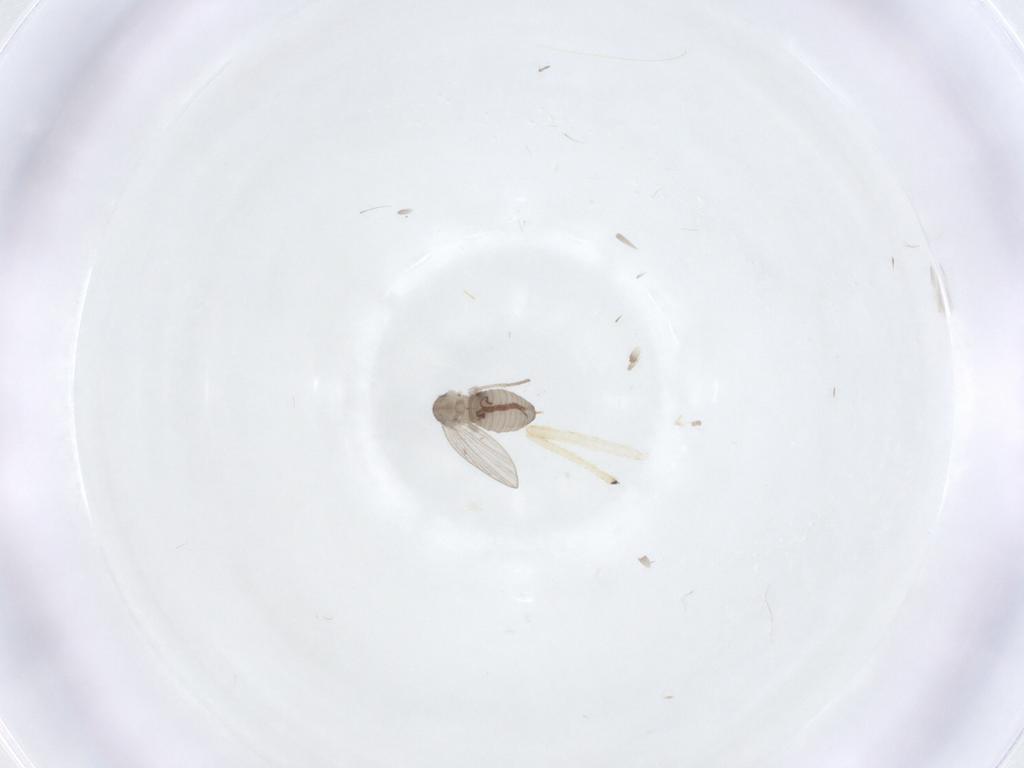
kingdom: Animalia
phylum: Arthropoda
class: Insecta
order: Diptera
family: Psychodidae
